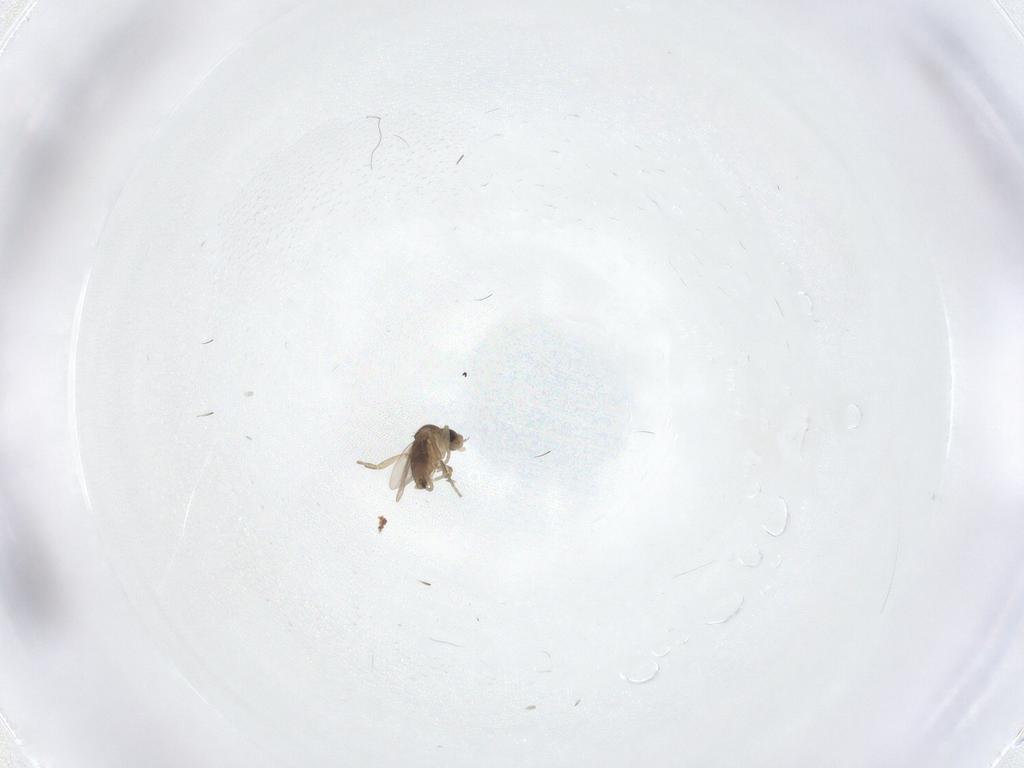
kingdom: Animalia
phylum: Arthropoda
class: Insecta
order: Diptera
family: Phoridae
